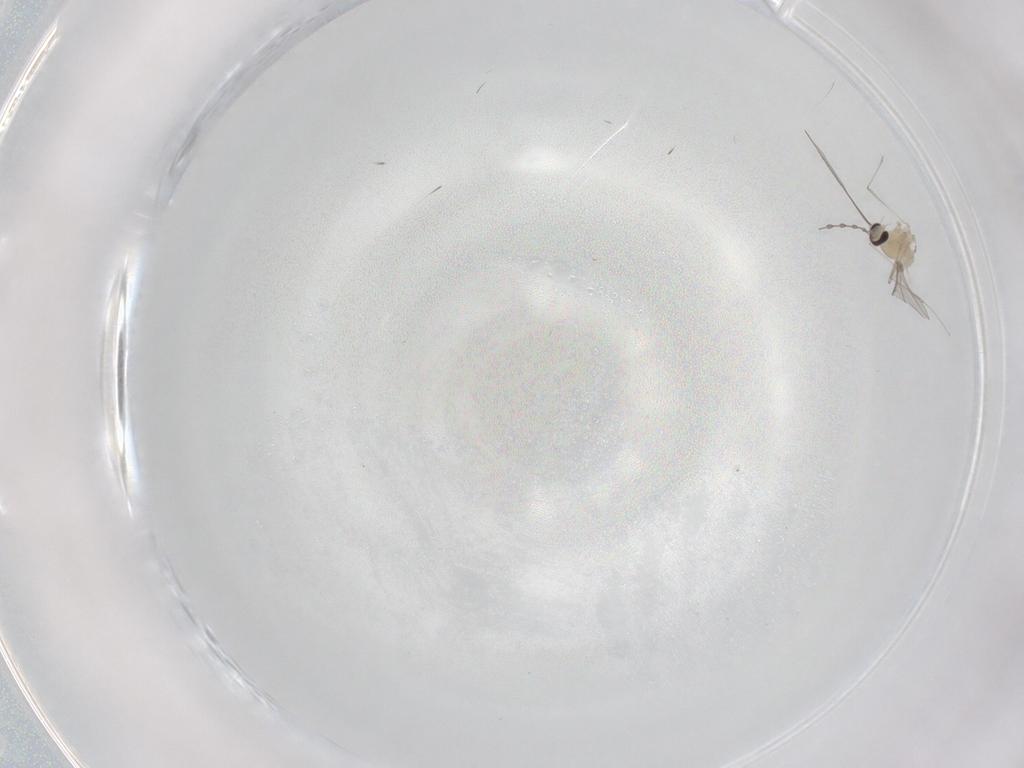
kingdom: Animalia
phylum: Arthropoda
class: Insecta
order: Diptera
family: Cecidomyiidae
